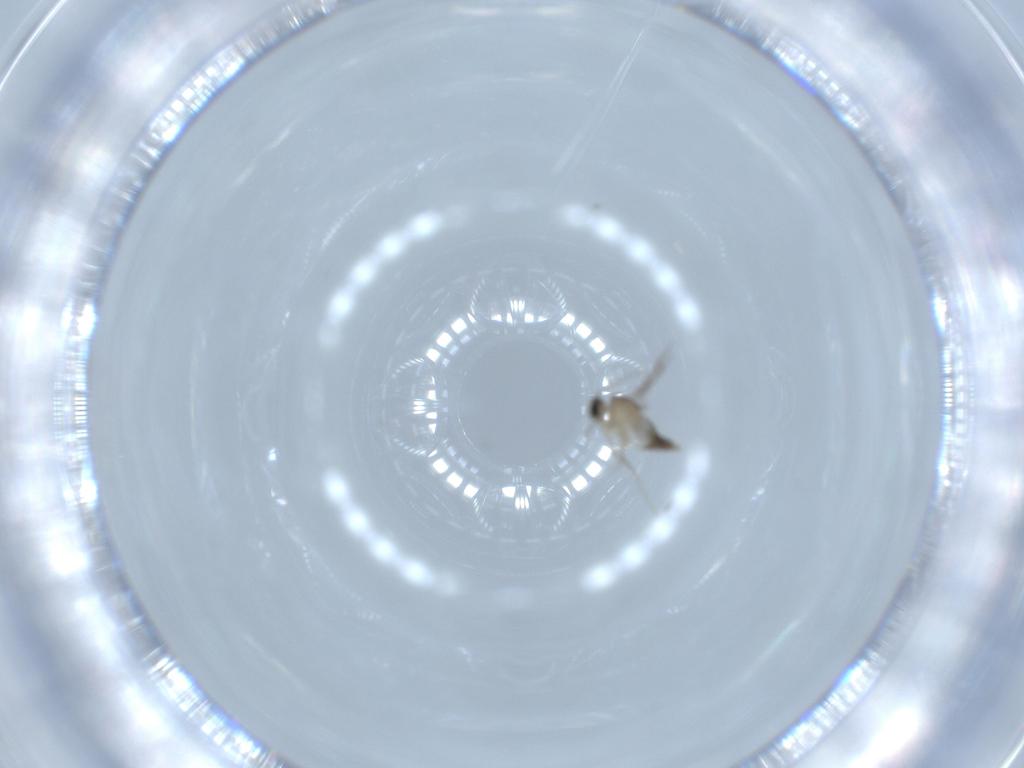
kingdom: Animalia
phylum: Arthropoda
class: Insecta
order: Diptera
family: Cecidomyiidae
